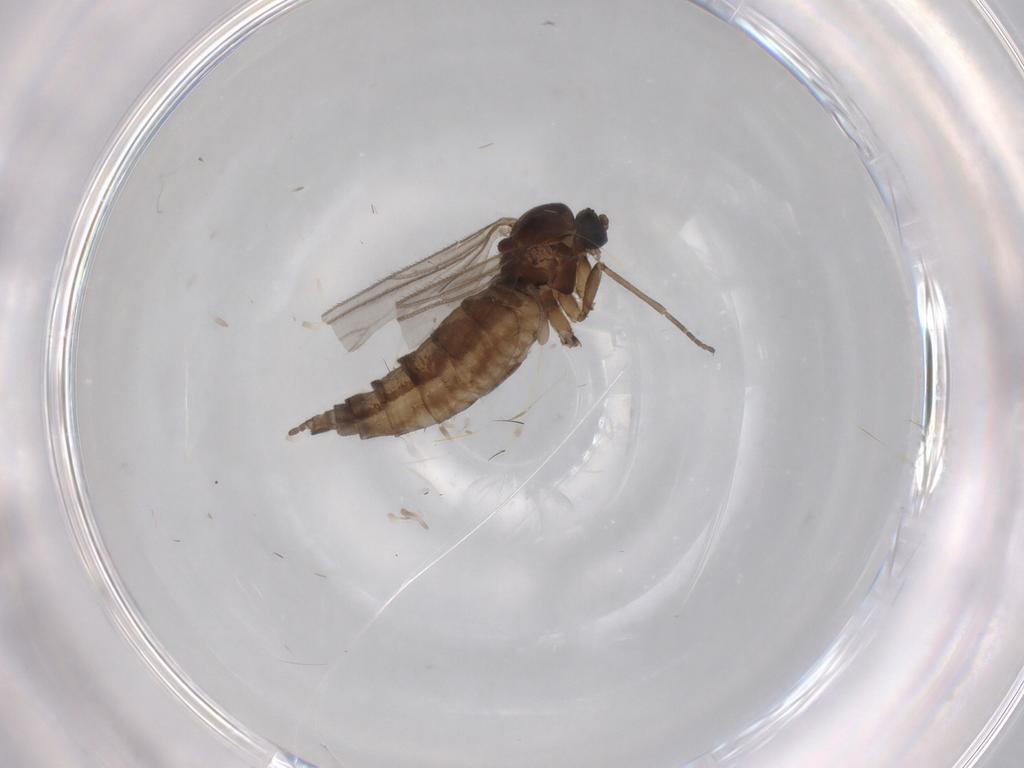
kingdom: Animalia
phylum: Arthropoda
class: Insecta
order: Diptera
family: Sciaridae
